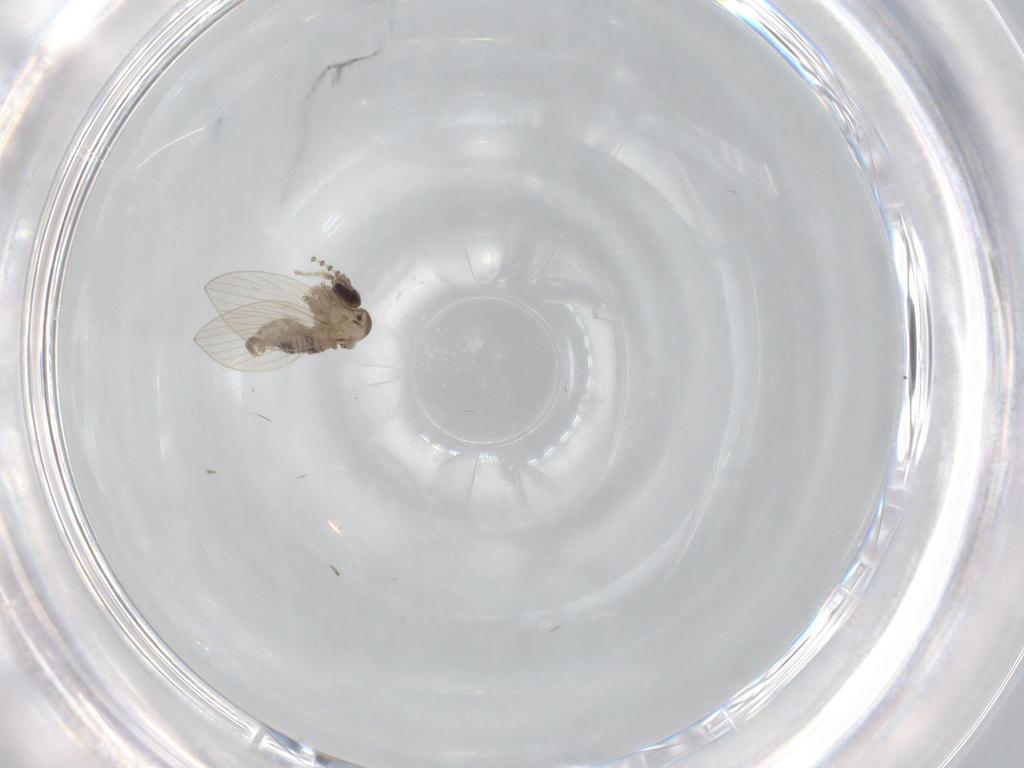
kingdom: Animalia
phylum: Arthropoda
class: Insecta
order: Diptera
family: Psychodidae
